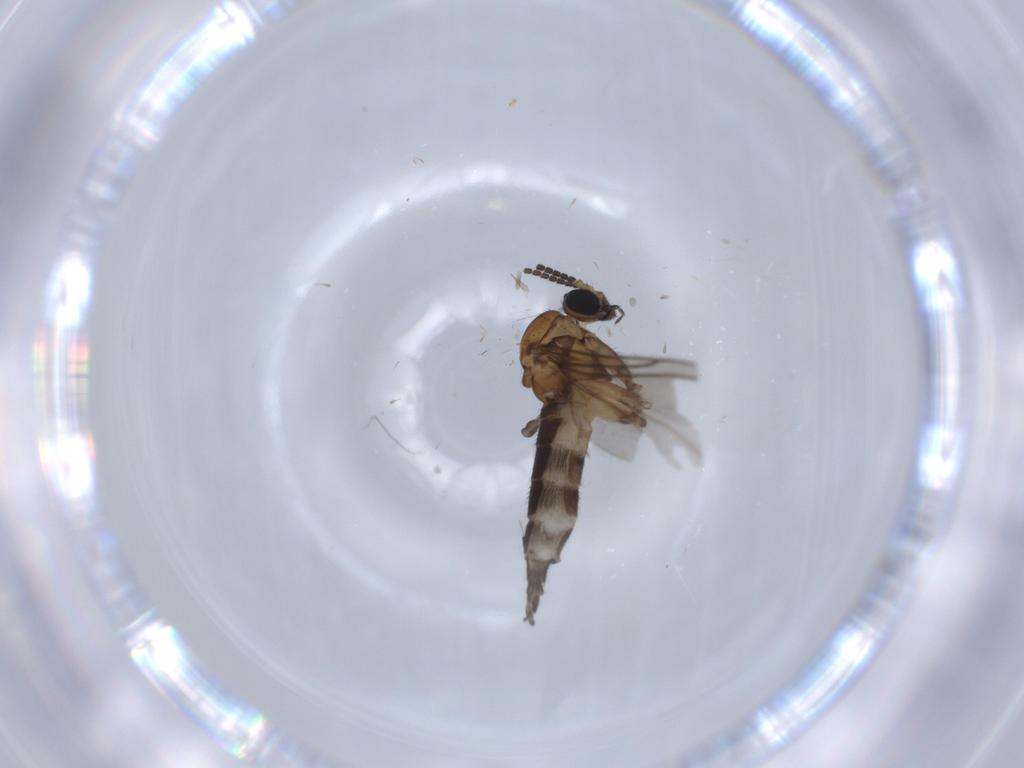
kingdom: Animalia
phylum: Arthropoda
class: Insecta
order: Diptera
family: Sciaridae
